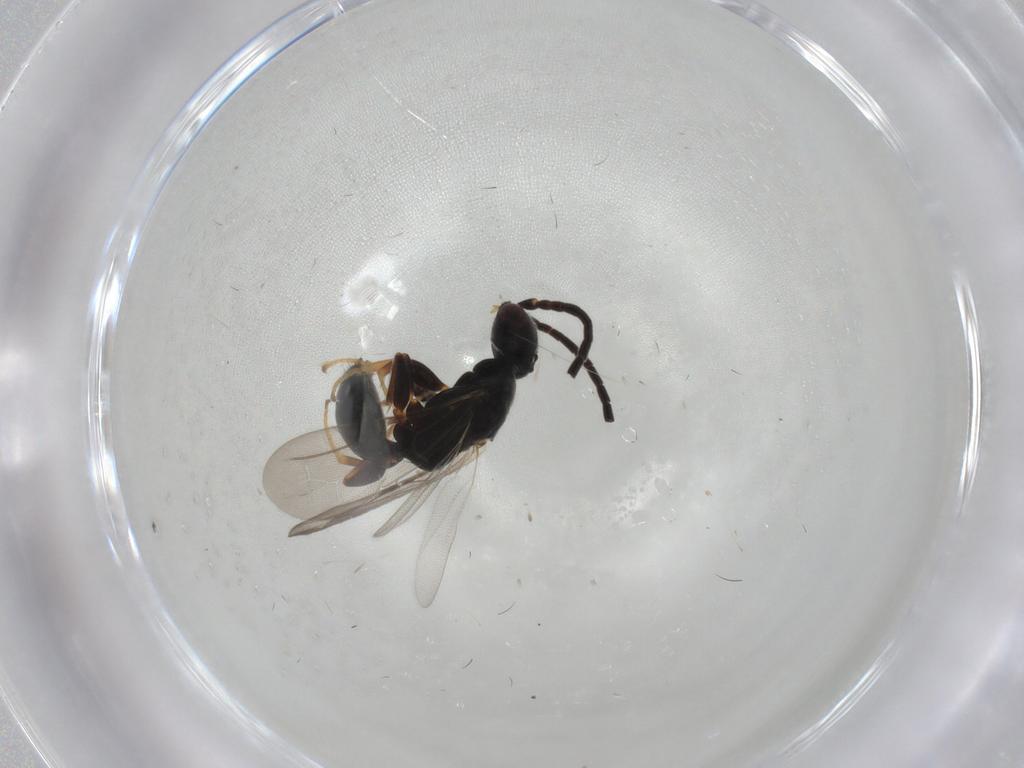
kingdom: Animalia
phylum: Arthropoda
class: Insecta
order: Hymenoptera
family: Bethylidae
